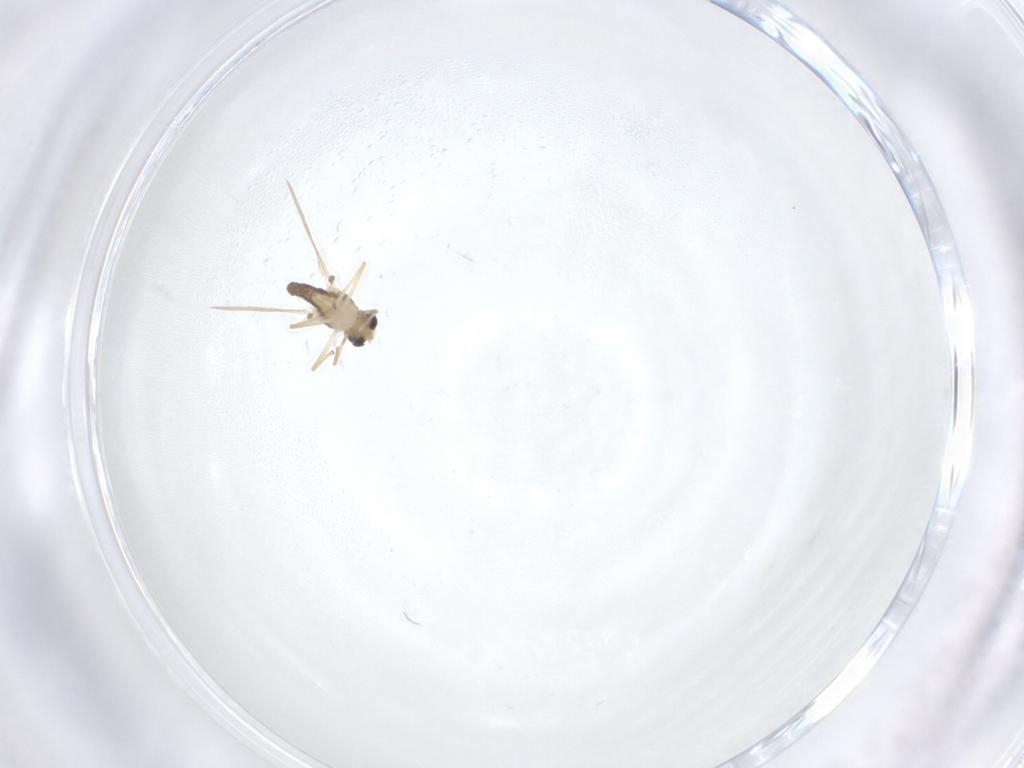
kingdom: Animalia
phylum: Arthropoda
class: Insecta
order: Diptera
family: Chironomidae
